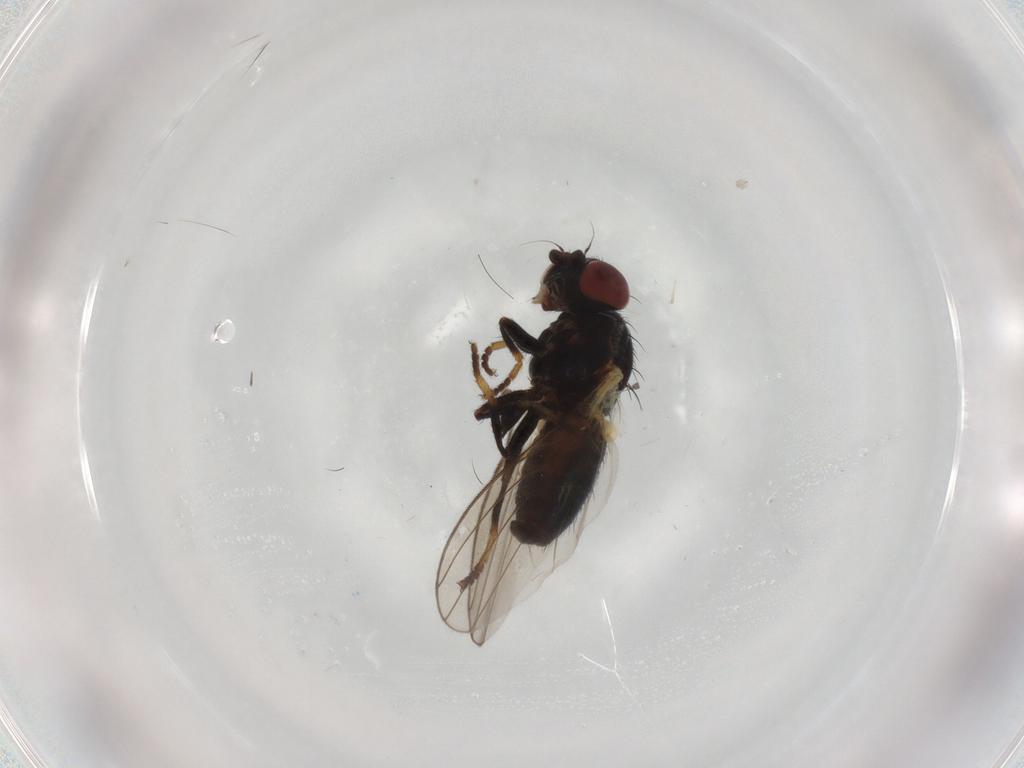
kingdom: Animalia
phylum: Arthropoda
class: Insecta
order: Diptera
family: Chamaemyiidae
